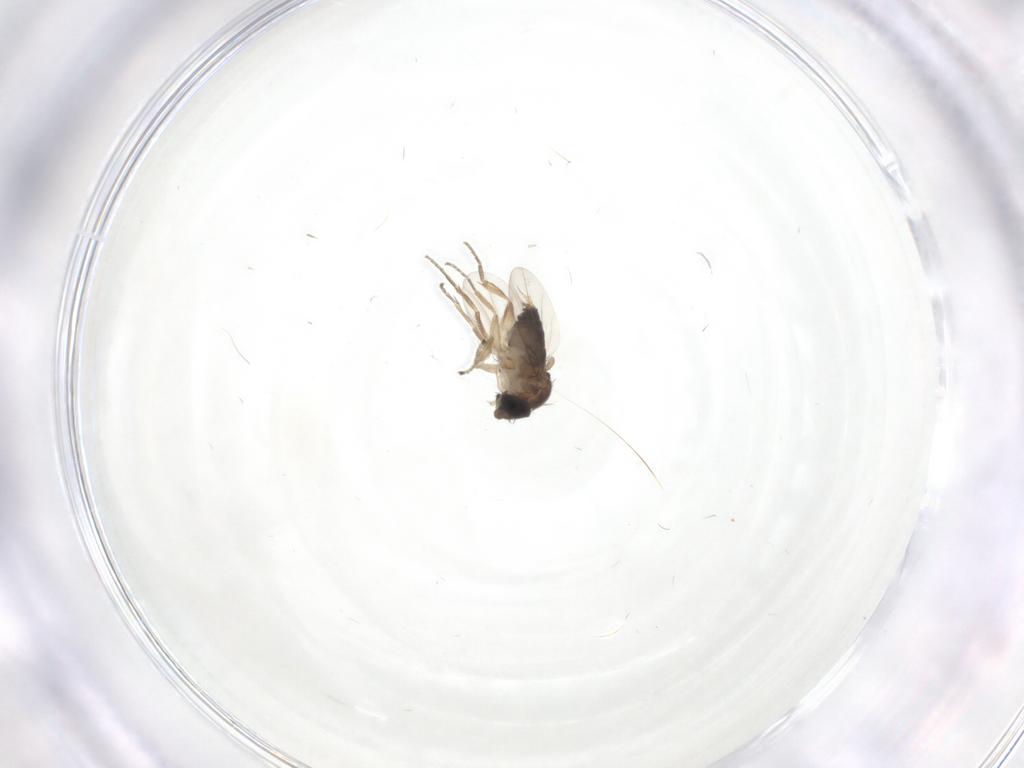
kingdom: Animalia
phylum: Arthropoda
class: Insecta
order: Diptera
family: Phoridae
